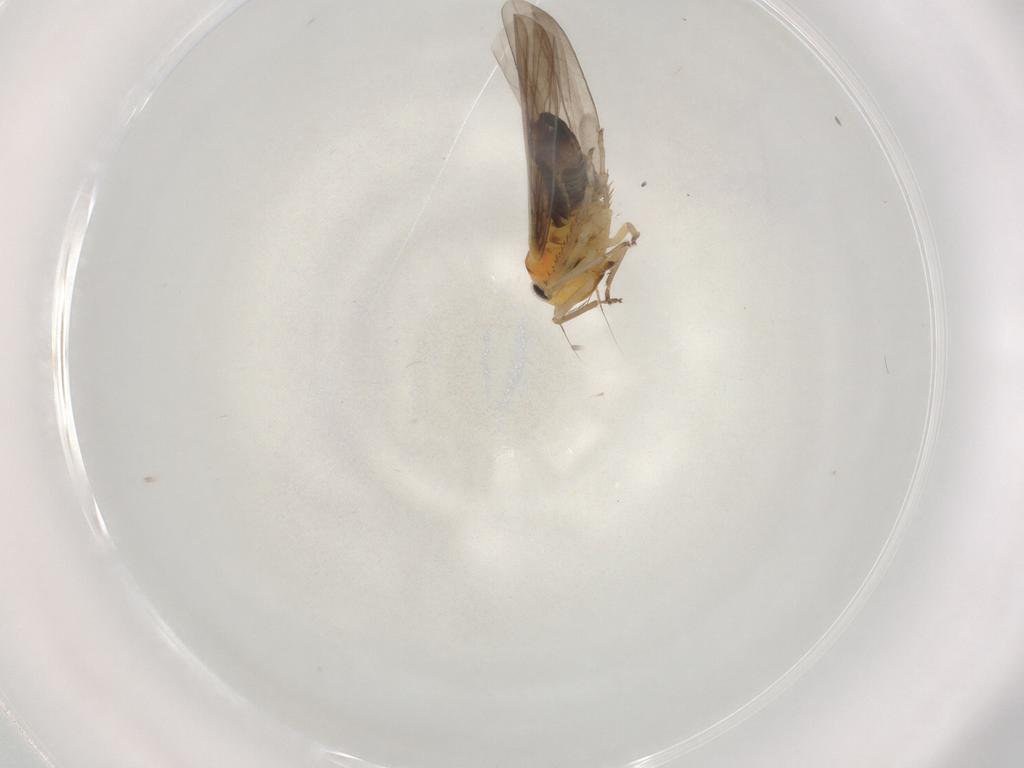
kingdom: Animalia
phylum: Arthropoda
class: Insecta
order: Hemiptera
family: Cicadellidae
